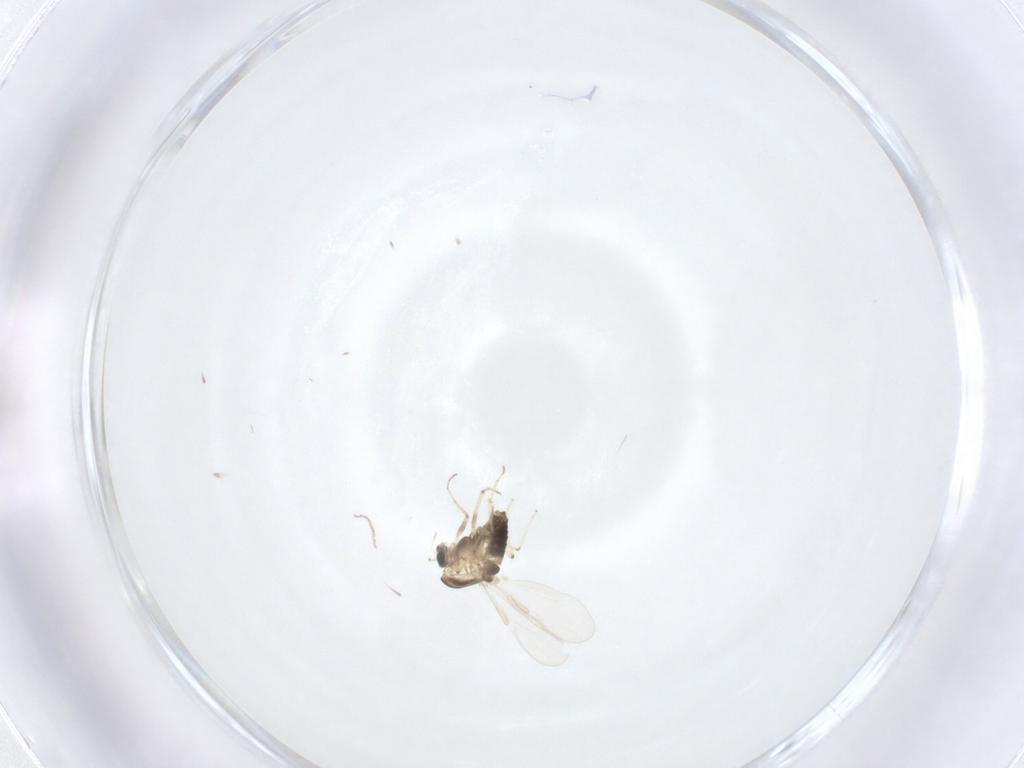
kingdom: Animalia
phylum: Arthropoda
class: Insecta
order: Diptera
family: Chironomidae
